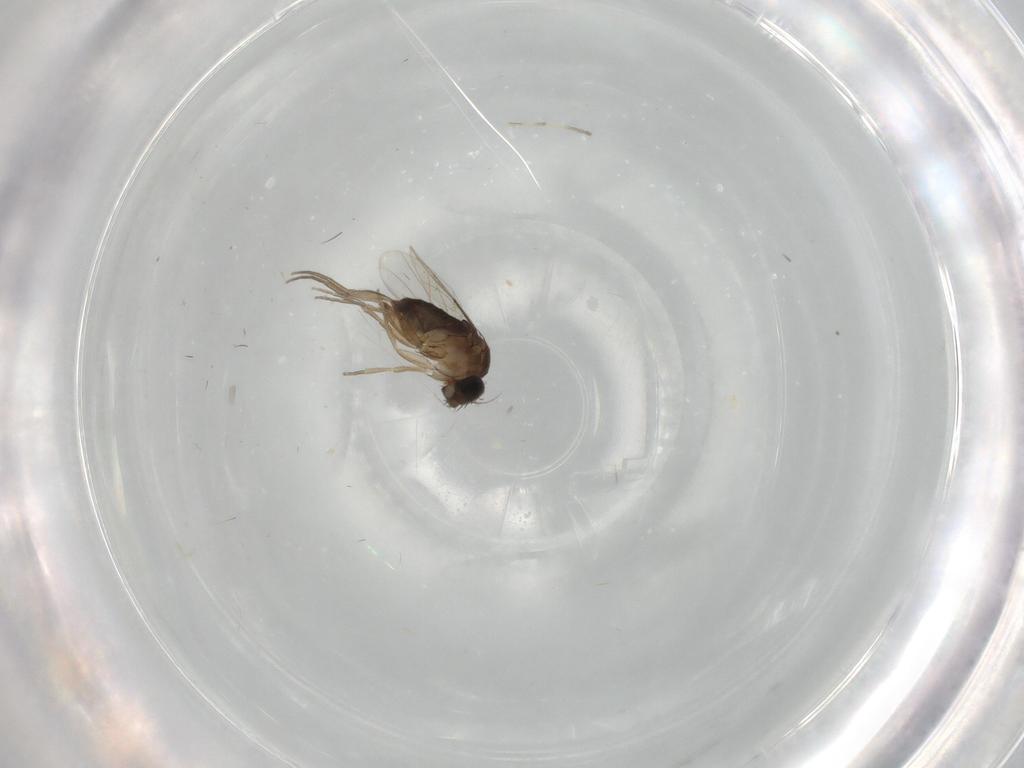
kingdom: Animalia
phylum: Arthropoda
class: Insecta
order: Diptera
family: Phoridae
